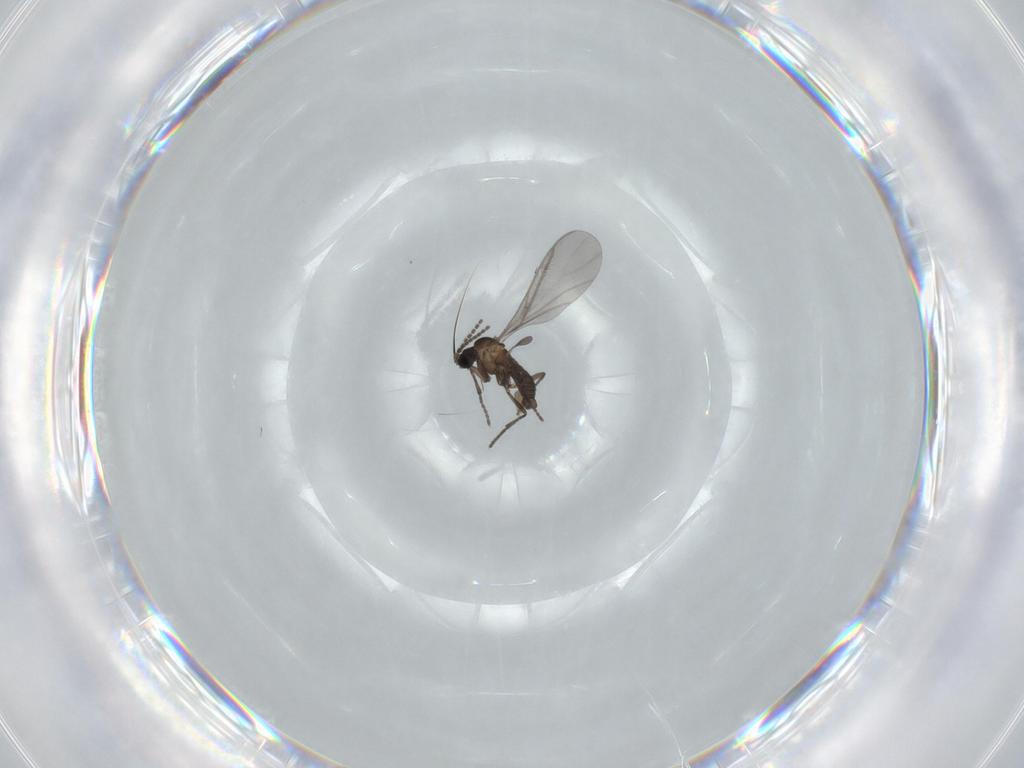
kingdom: Animalia
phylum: Arthropoda
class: Insecta
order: Diptera
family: Sciaridae
